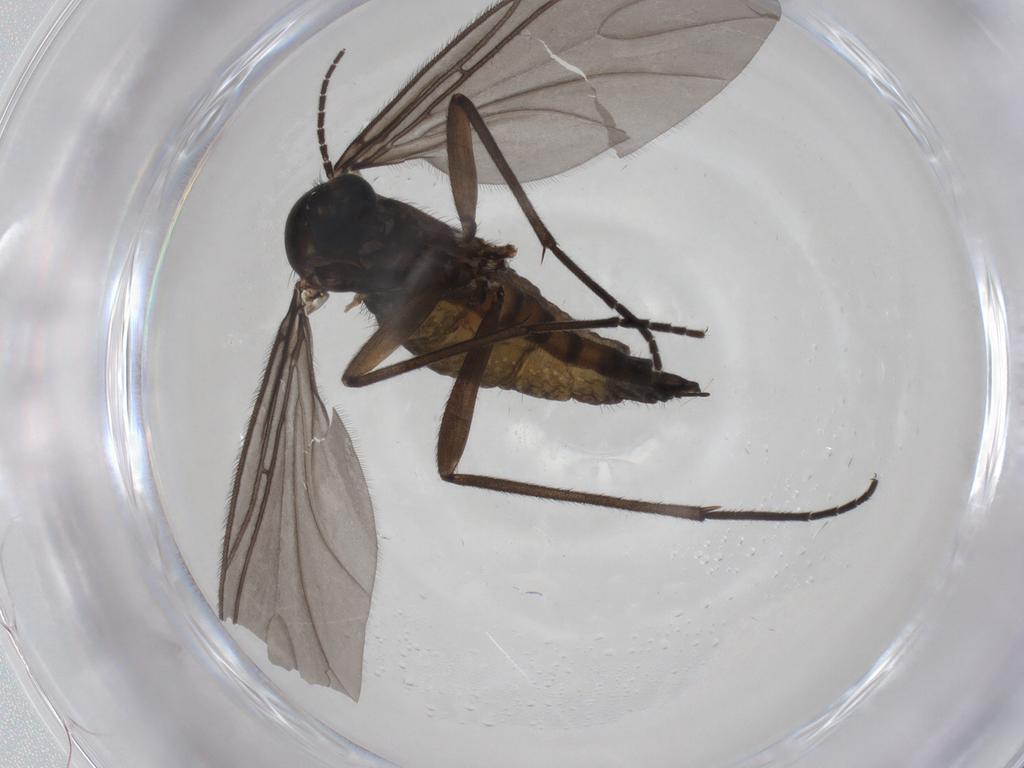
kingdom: Animalia
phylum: Arthropoda
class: Insecta
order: Diptera
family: Sciaridae
